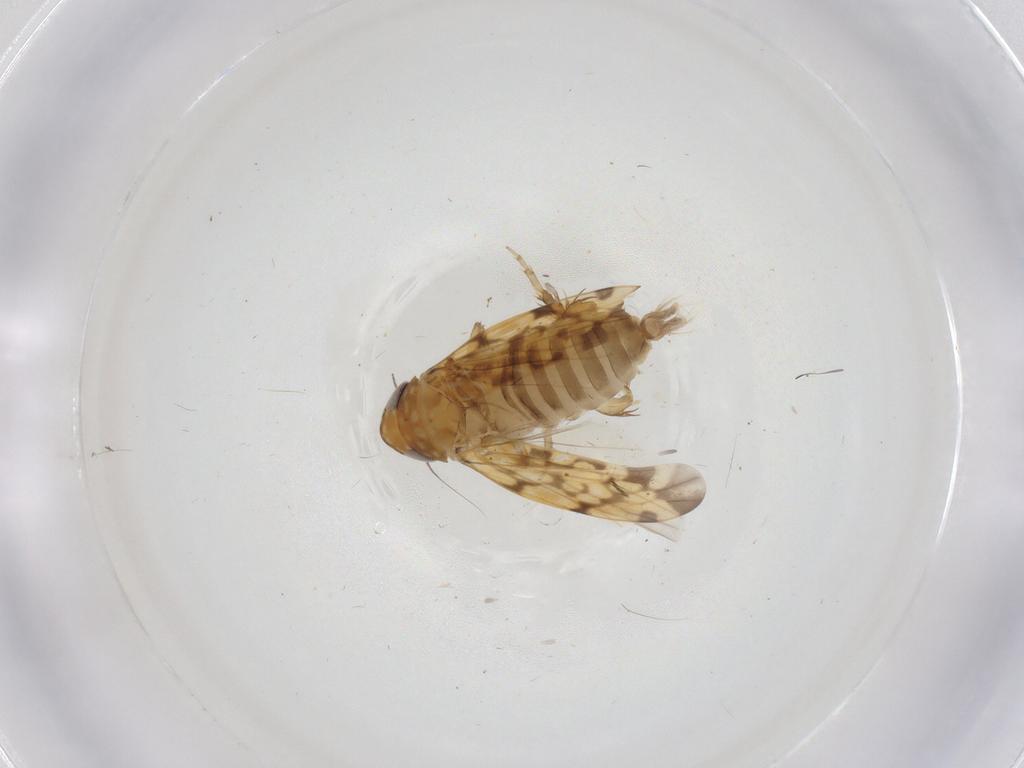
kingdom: Animalia
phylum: Arthropoda
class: Insecta
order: Hemiptera
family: Cicadellidae
